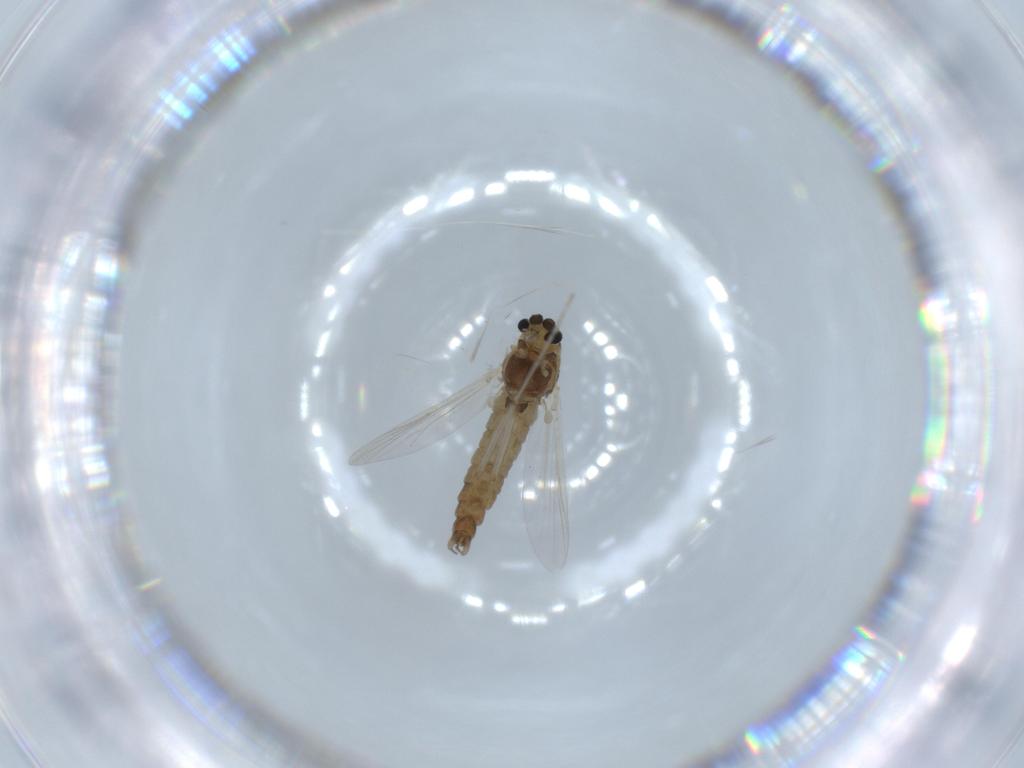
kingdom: Animalia
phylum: Arthropoda
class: Insecta
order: Diptera
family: Chironomidae
